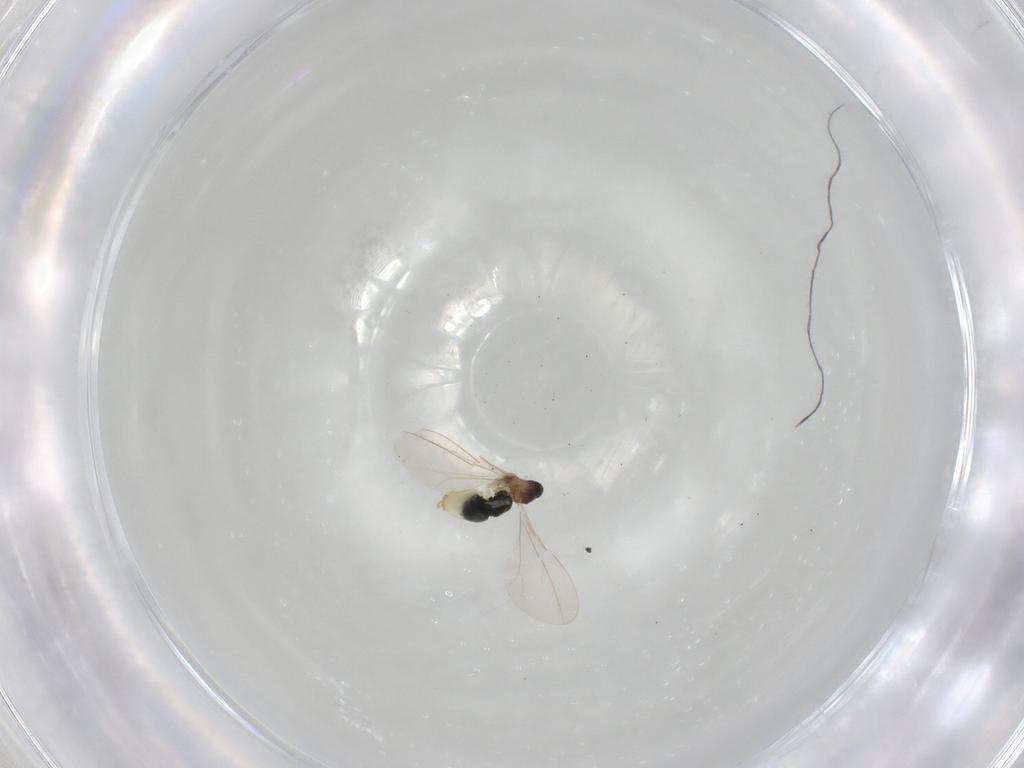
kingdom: Animalia
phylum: Arthropoda
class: Insecta
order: Diptera
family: Cecidomyiidae
